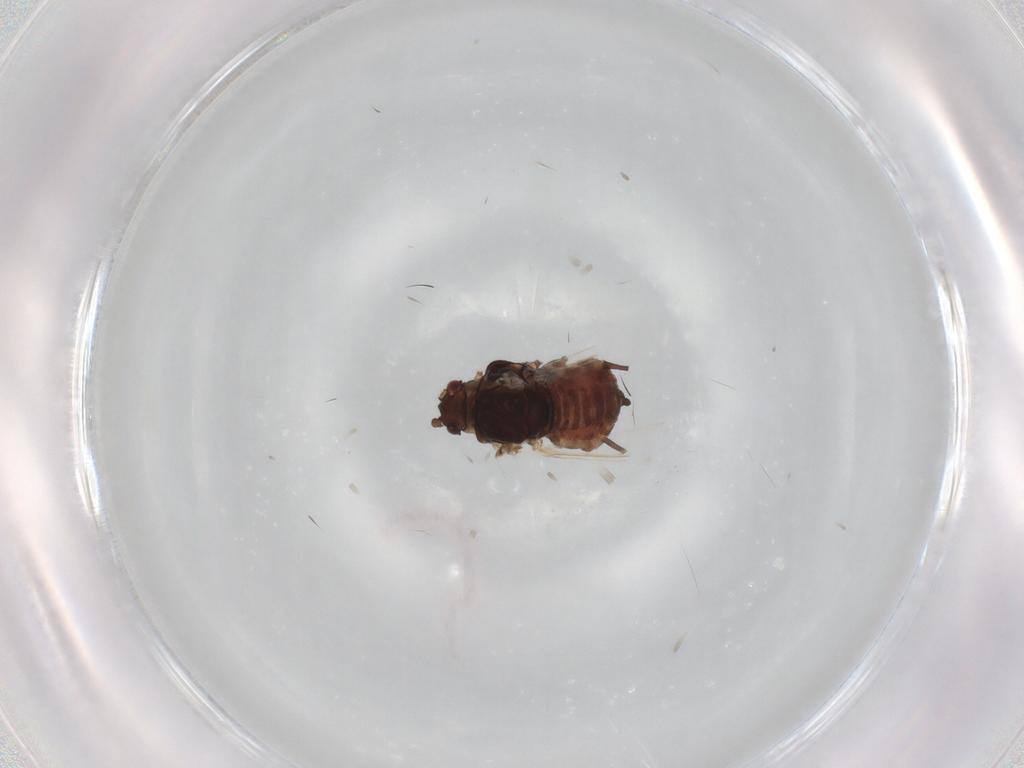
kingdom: Animalia
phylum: Arthropoda
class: Insecta
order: Hemiptera
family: Aphididae
